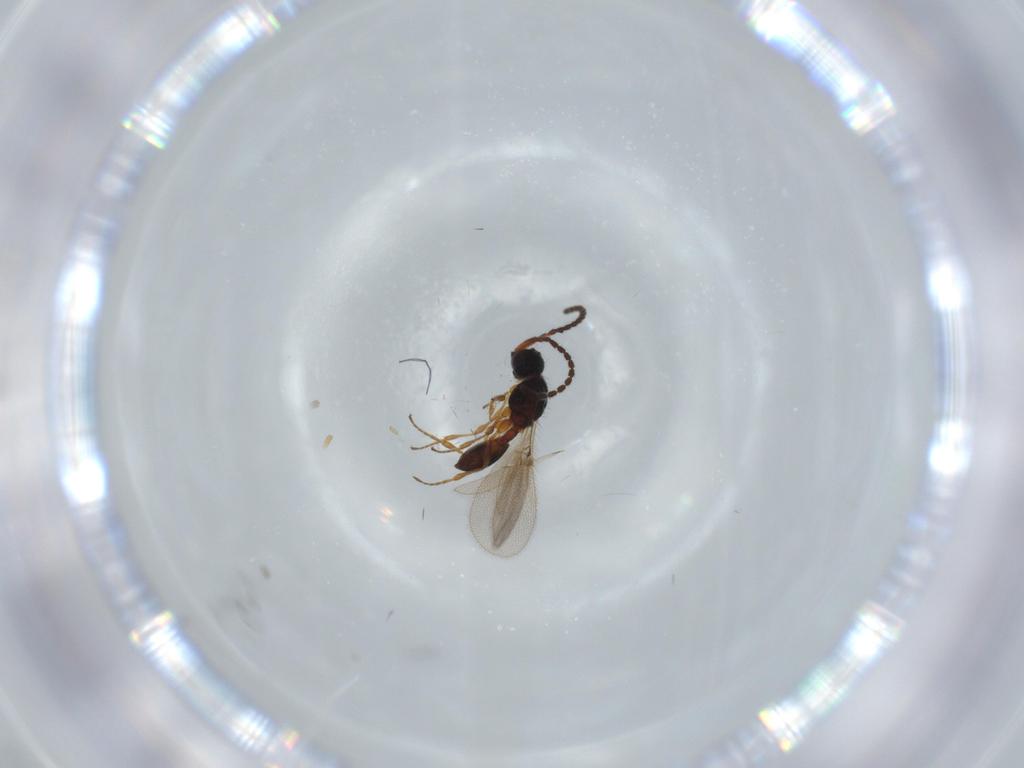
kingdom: Animalia
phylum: Arthropoda
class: Insecta
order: Hymenoptera
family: Diapriidae
